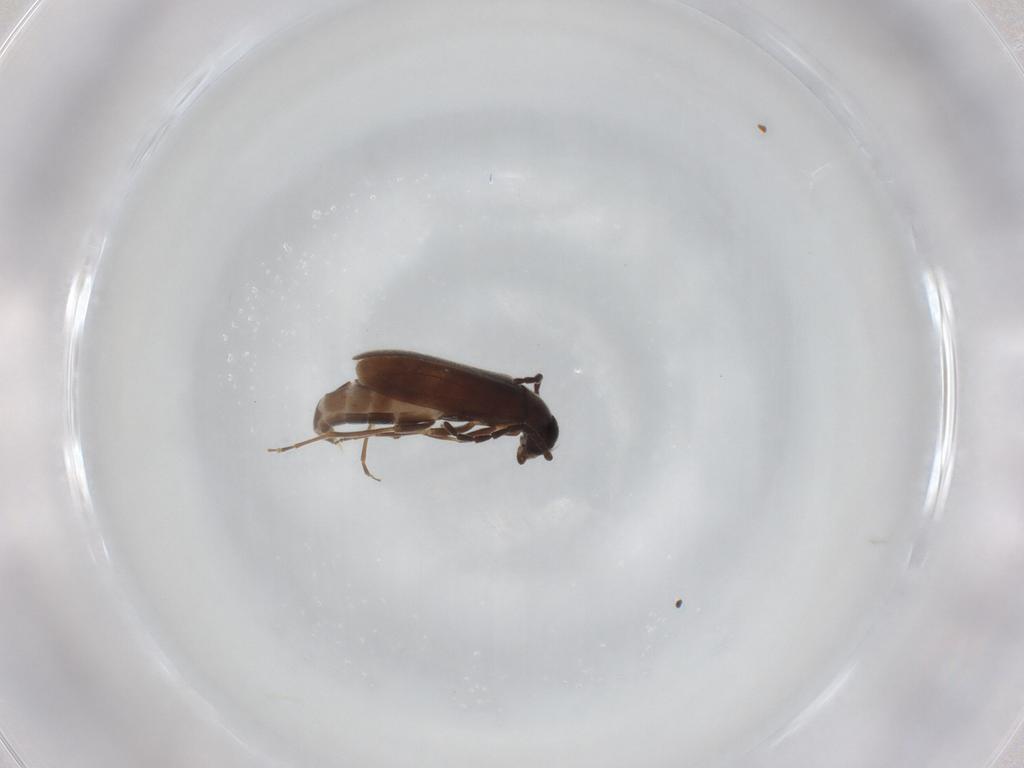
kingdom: Animalia
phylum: Arthropoda
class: Insecta
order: Coleoptera
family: Scraptiidae
